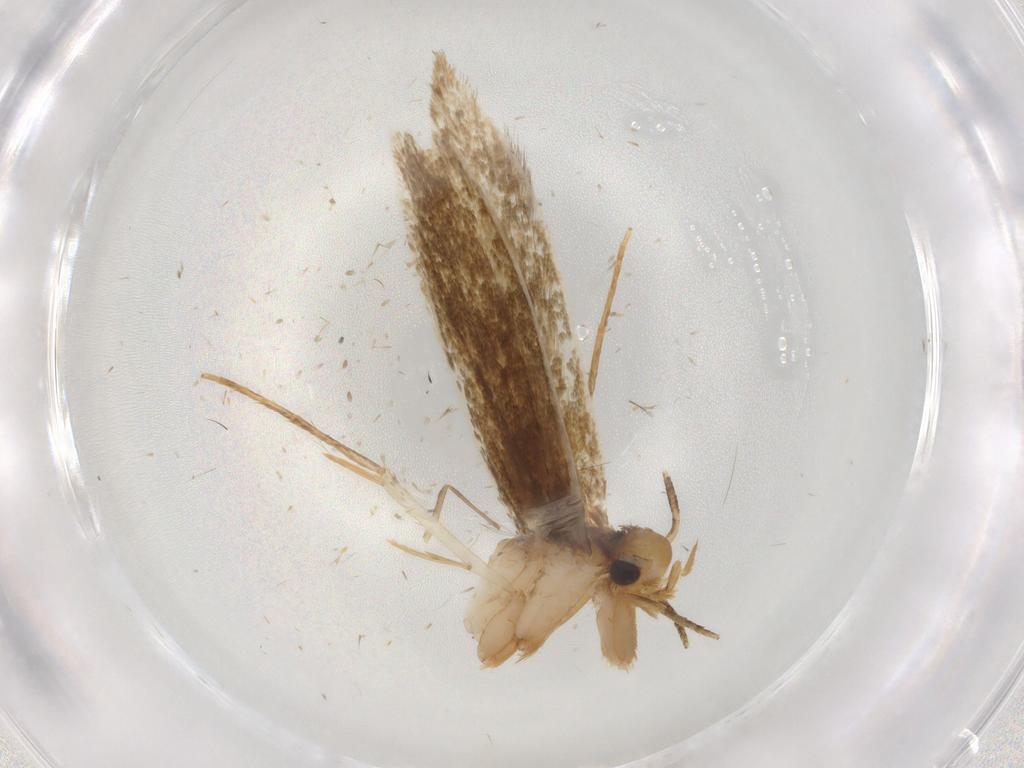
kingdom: Animalia
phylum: Arthropoda
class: Insecta
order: Lepidoptera
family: Tineidae
